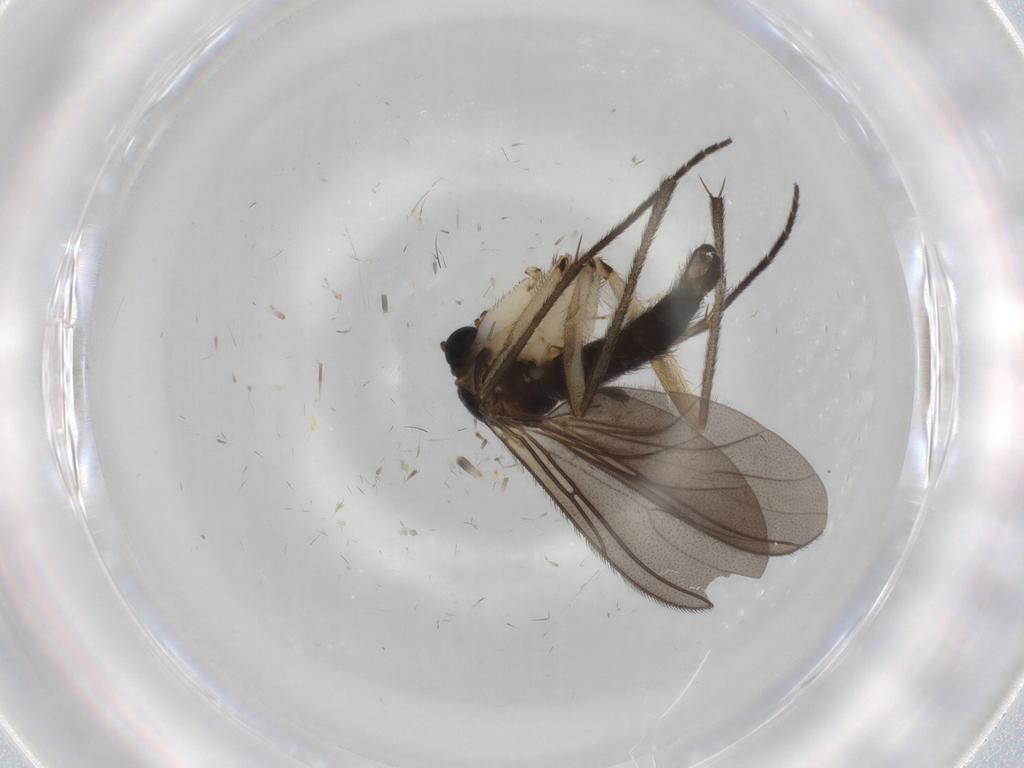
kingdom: Animalia
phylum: Arthropoda
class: Insecta
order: Diptera
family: Sciaridae
